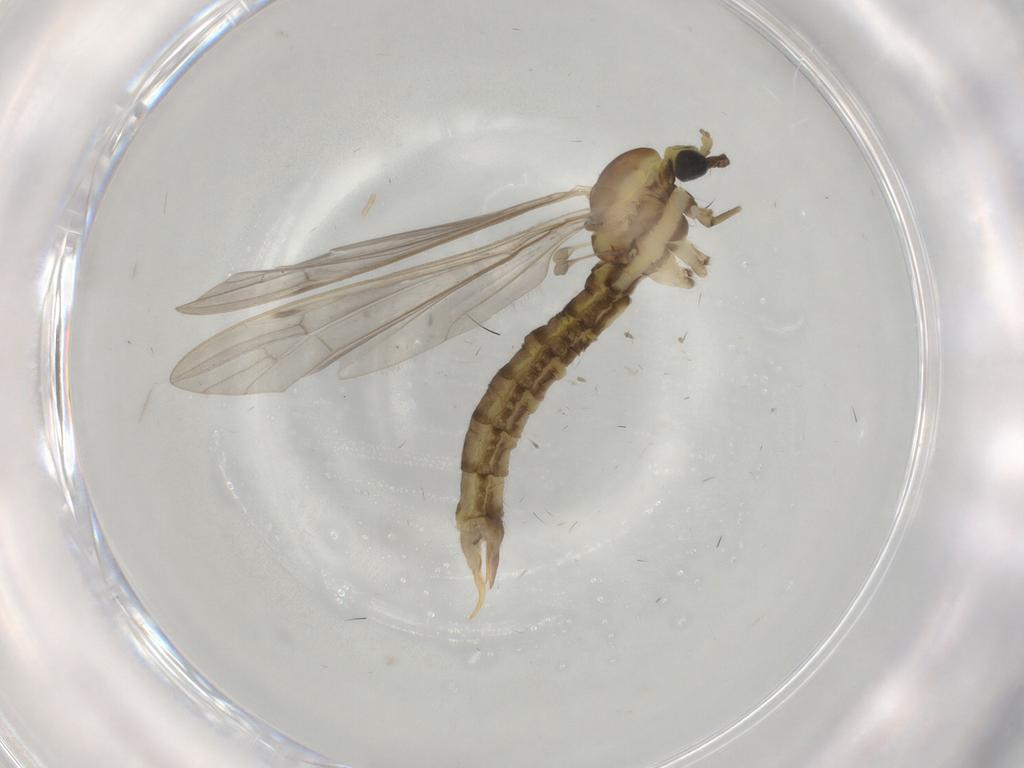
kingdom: Animalia
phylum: Arthropoda
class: Insecta
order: Diptera
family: Limoniidae
